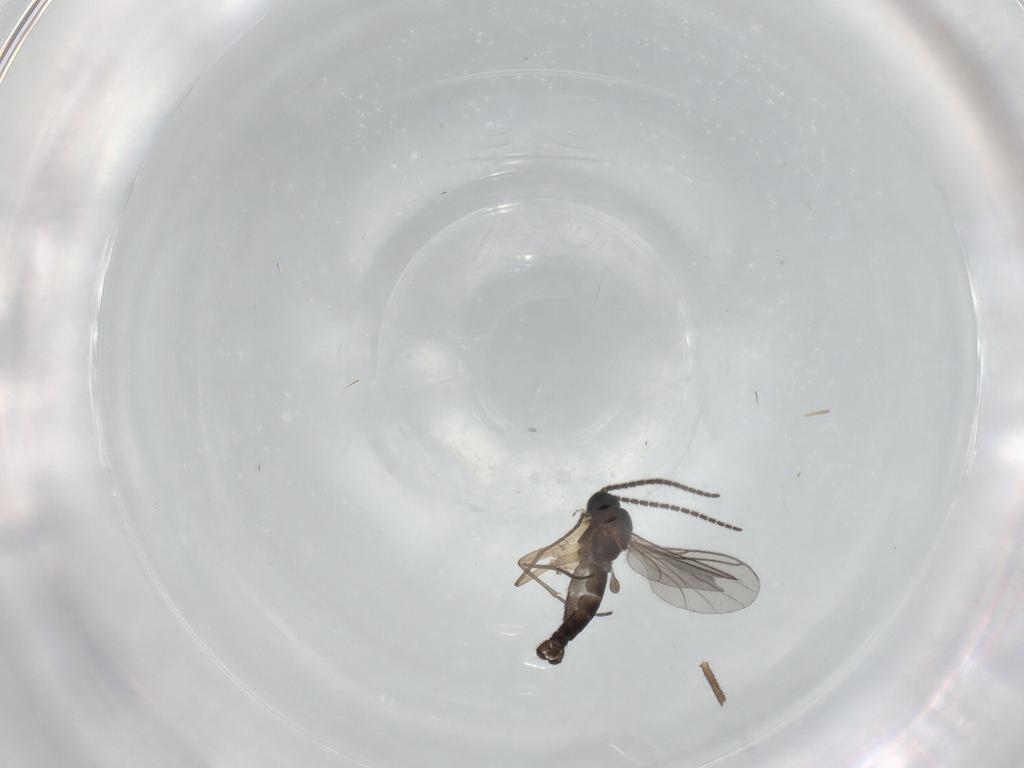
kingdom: Animalia
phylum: Arthropoda
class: Insecta
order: Diptera
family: Sciaridae
